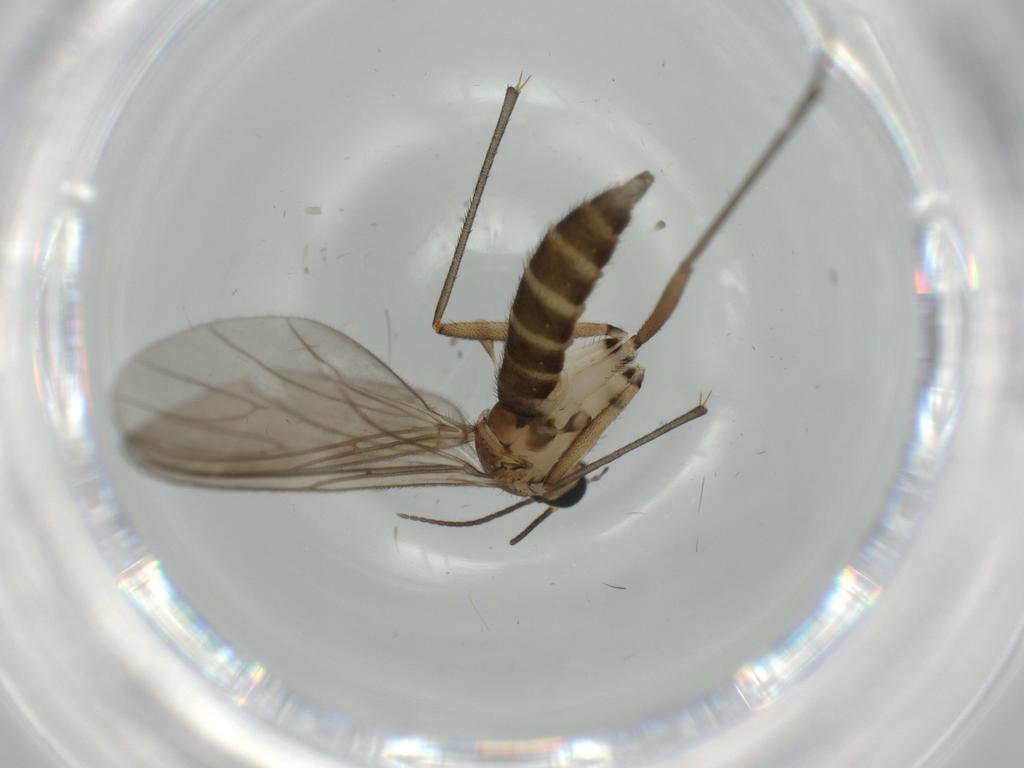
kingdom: Animalia
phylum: Arthropoda
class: Insecta
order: Diptera
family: Sciaridae
